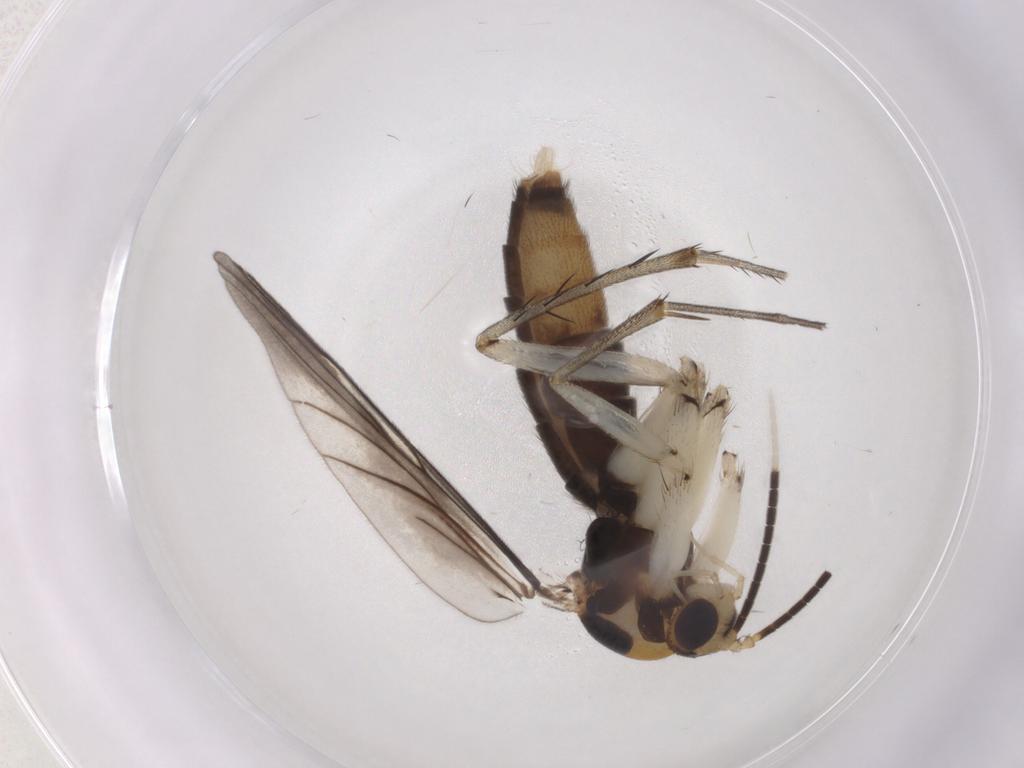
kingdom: Animalia
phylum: Arthropoda
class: Insecta
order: Diptera
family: Mycetophilidae
